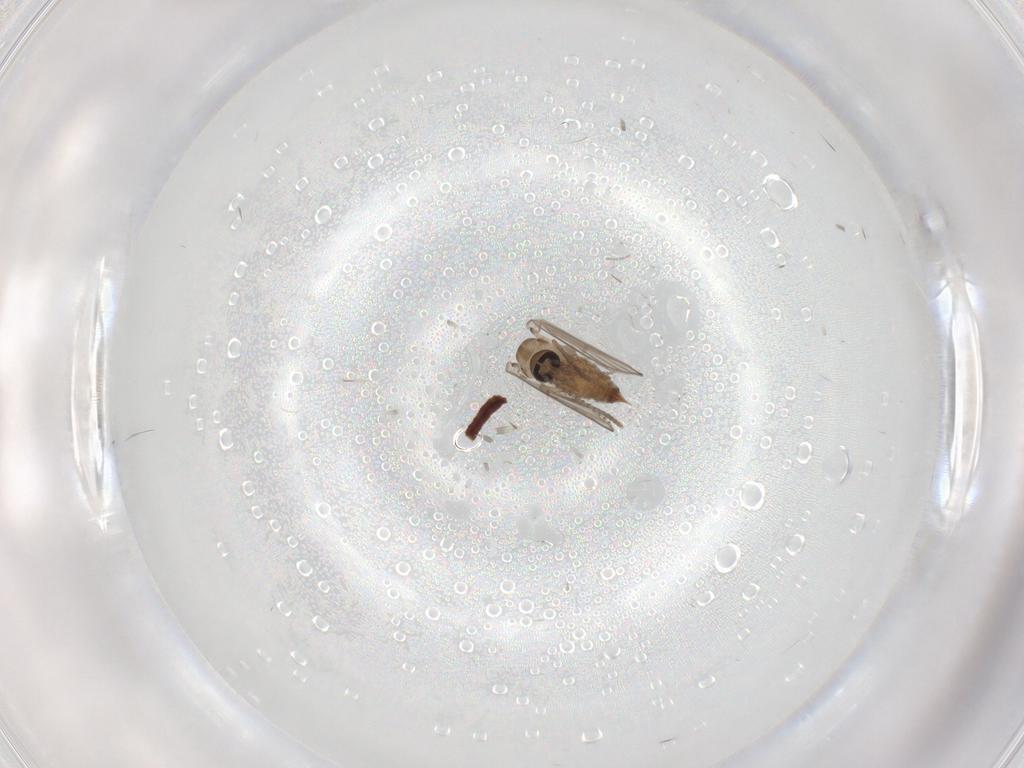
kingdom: Animalia
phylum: Arthropoda
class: Insecta
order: Diptera
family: Psychodidae
